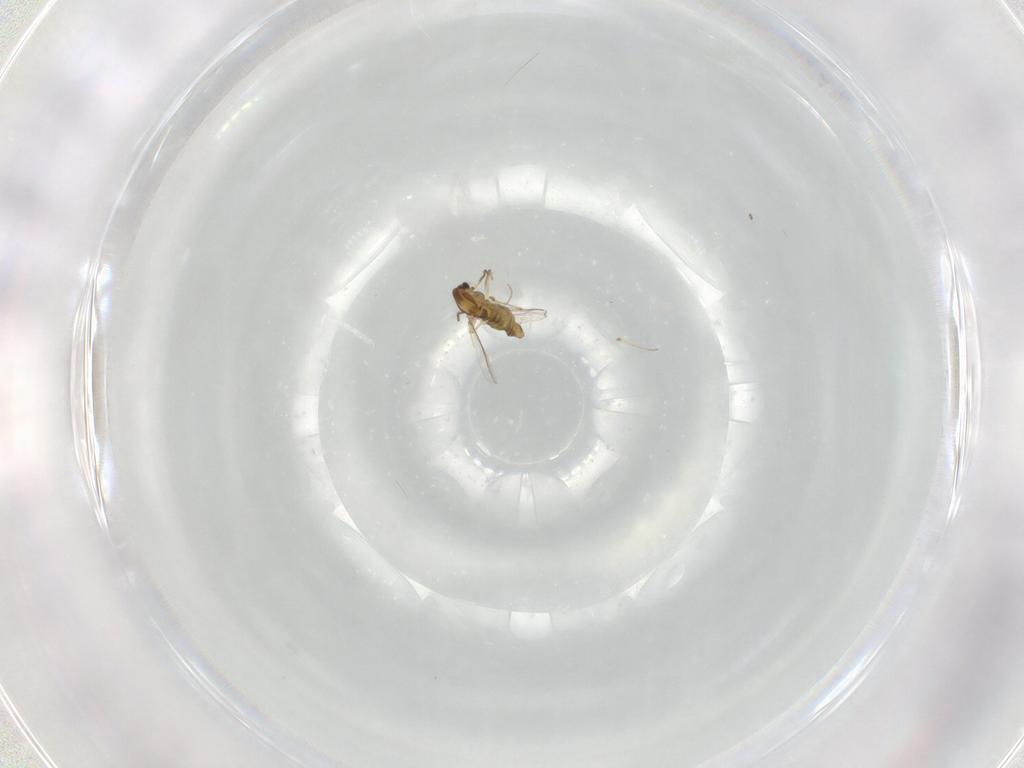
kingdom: Animalia
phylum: Arthropoda
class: Insecta
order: Diptera
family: Chironomidae
